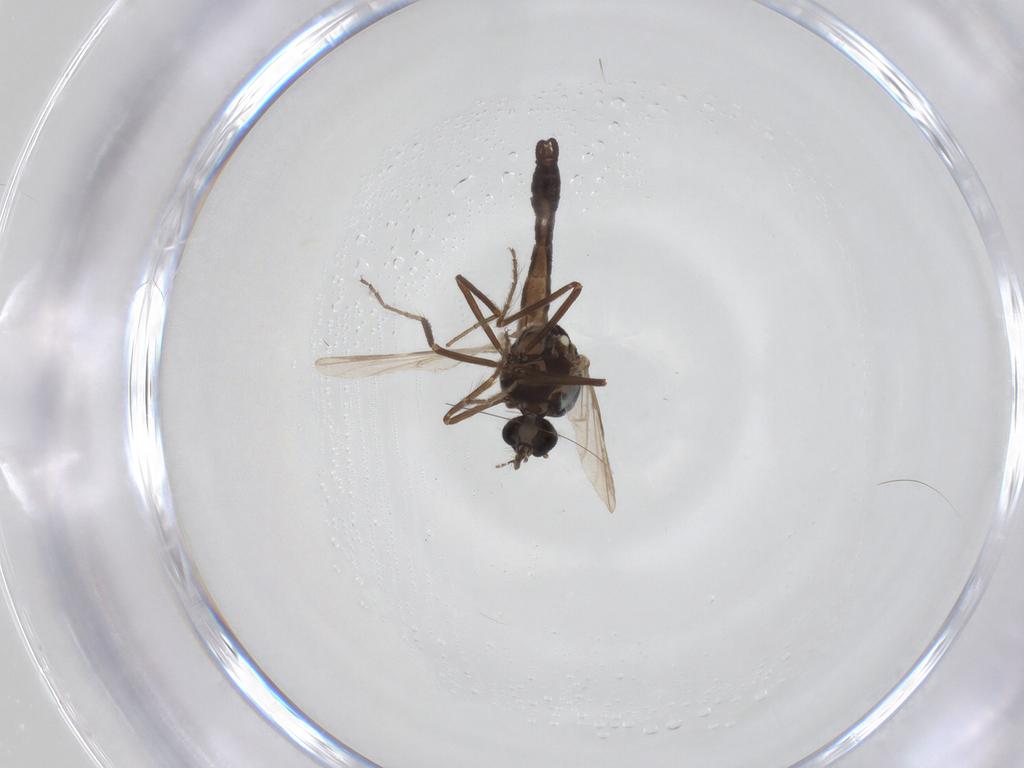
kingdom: Animalia
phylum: Arthropoda
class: Insecta
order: Diptera
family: Ceratopogonidae
